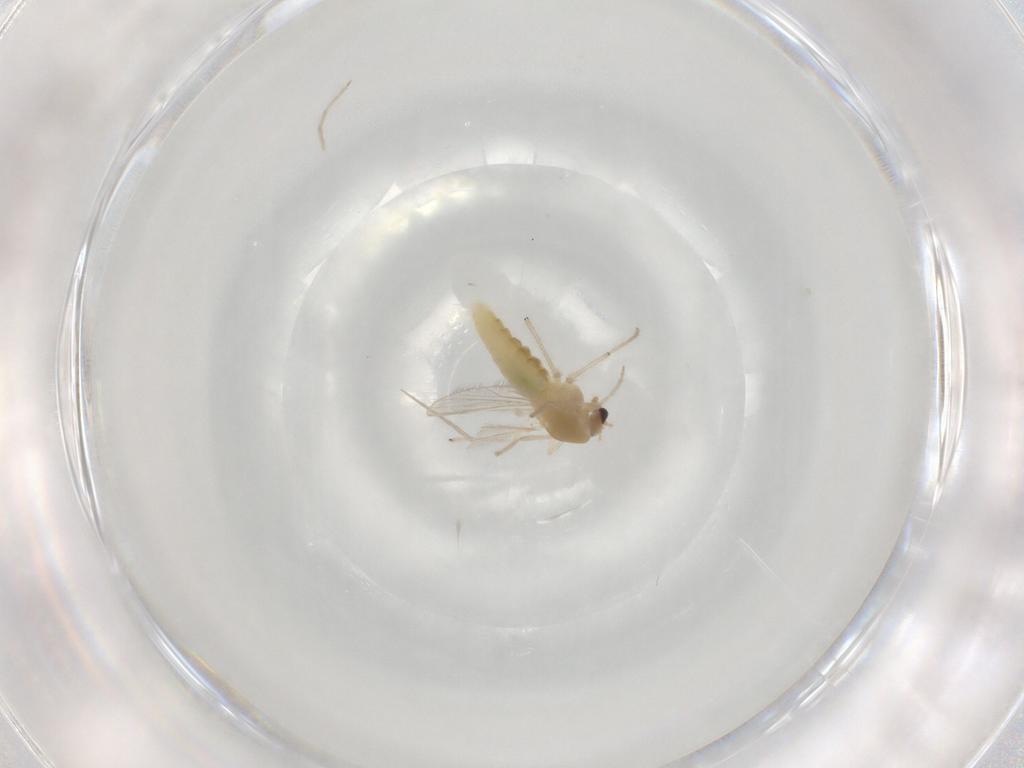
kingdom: Animalia
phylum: Arthropoda
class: Insecta
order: Diptera
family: Chironomidae
